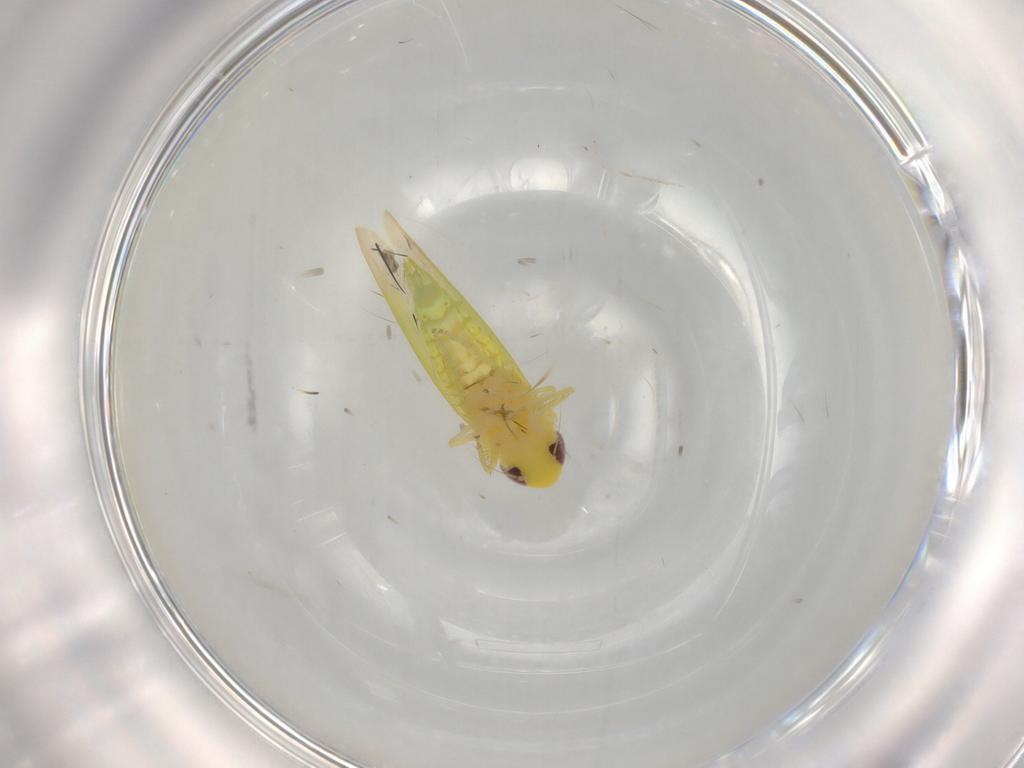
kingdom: Animalia
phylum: Arthropoda
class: Insecta
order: Hemiptera
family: Cicadellidae
